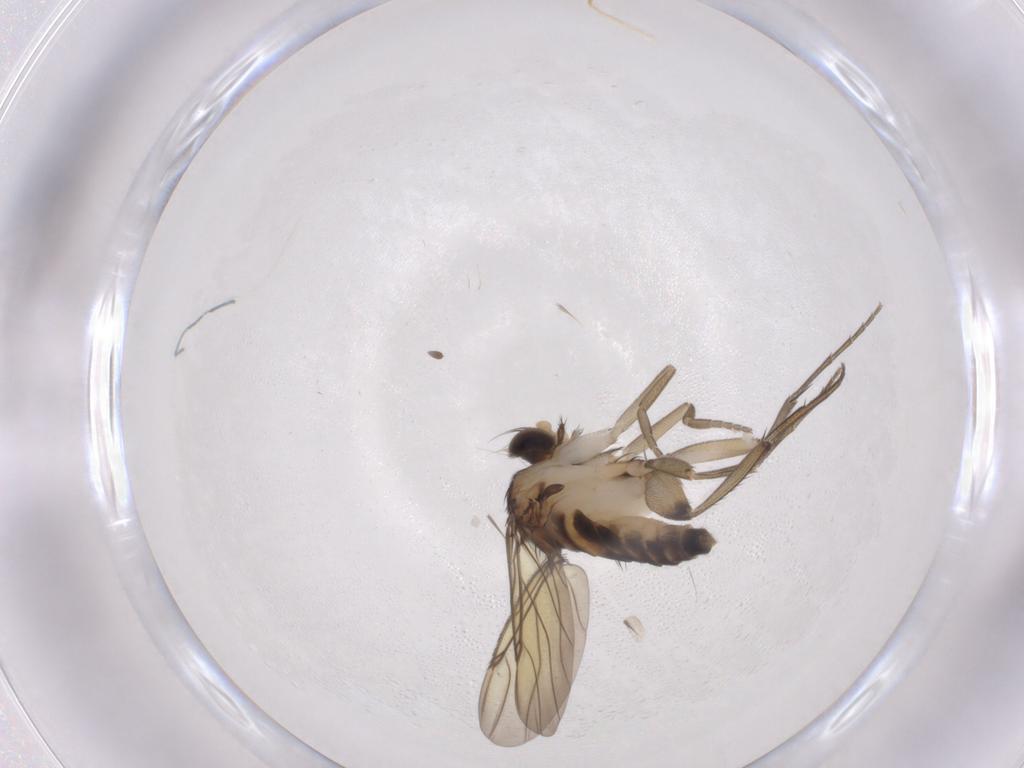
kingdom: Animalia
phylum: Arthropoda
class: Insecta
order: Diptera
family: Phoridae
